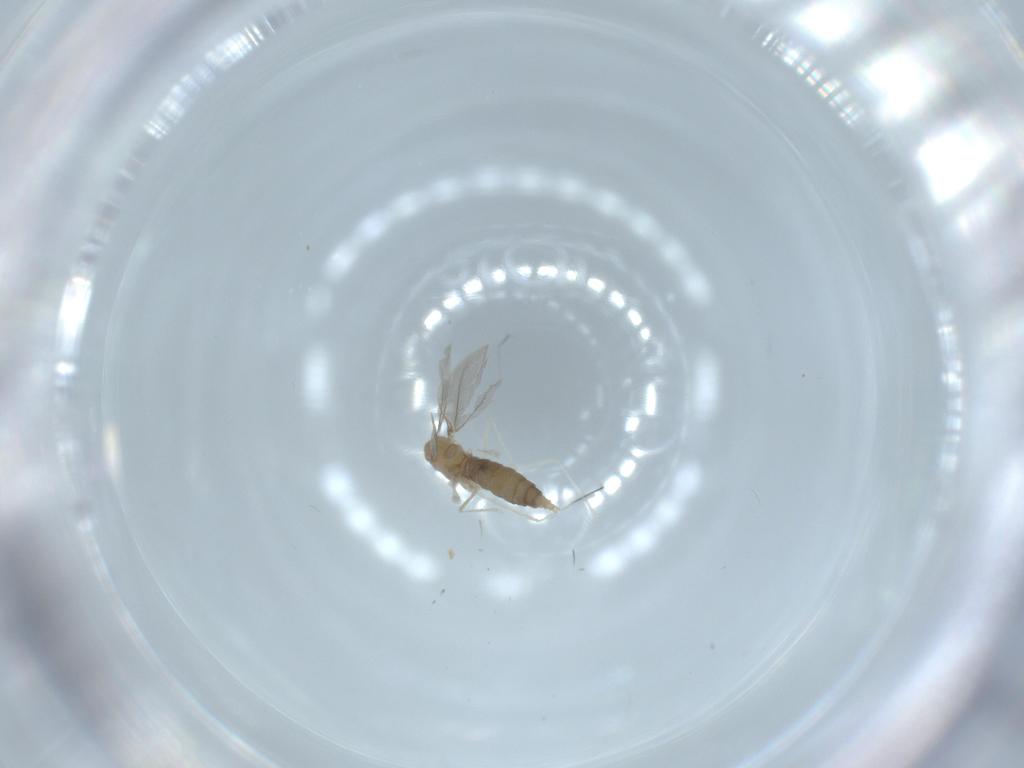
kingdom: Animalia
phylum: Arthropoda
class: Insecta
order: Diptera
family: Cecidomyiidae
